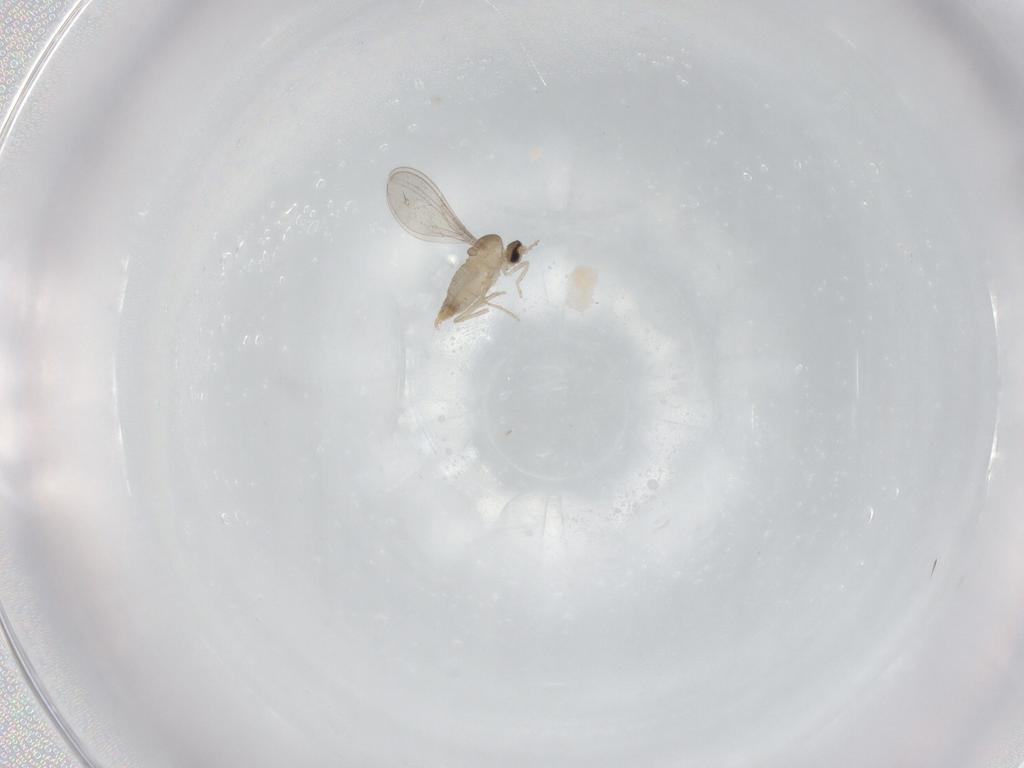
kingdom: Animalia
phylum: Arthropoda
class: Insecta
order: Diptera
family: Cecidomyiidae
